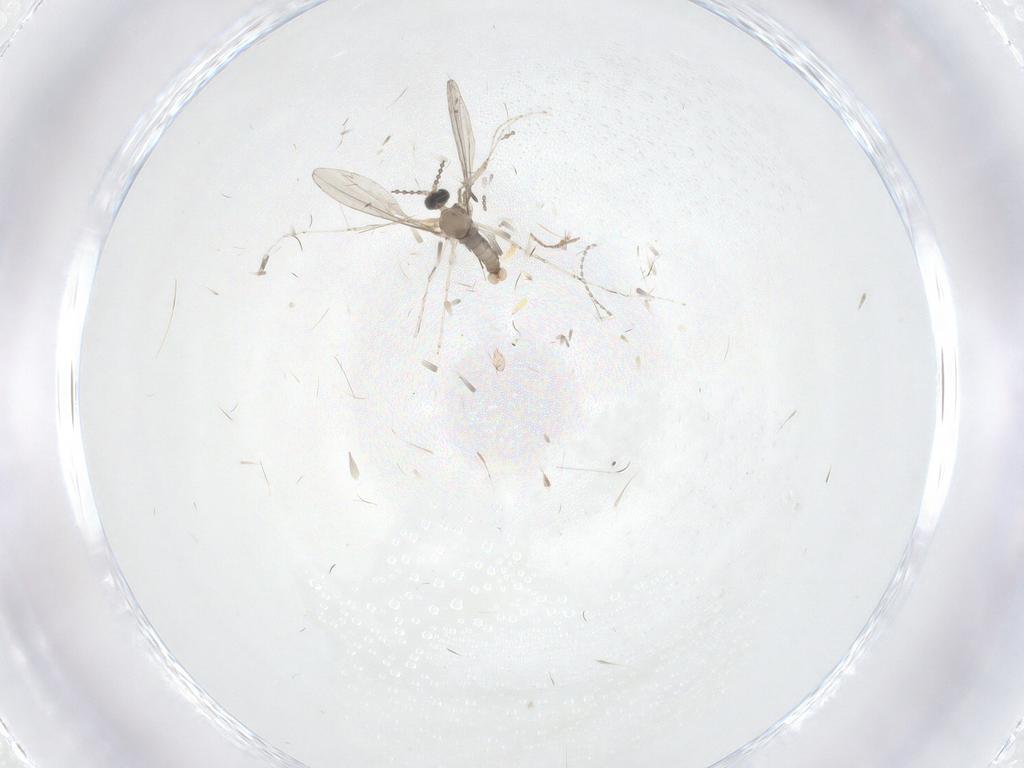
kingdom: Animalia
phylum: Arthropoda
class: Insecta
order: Diptera
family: Cecidomyiidae
